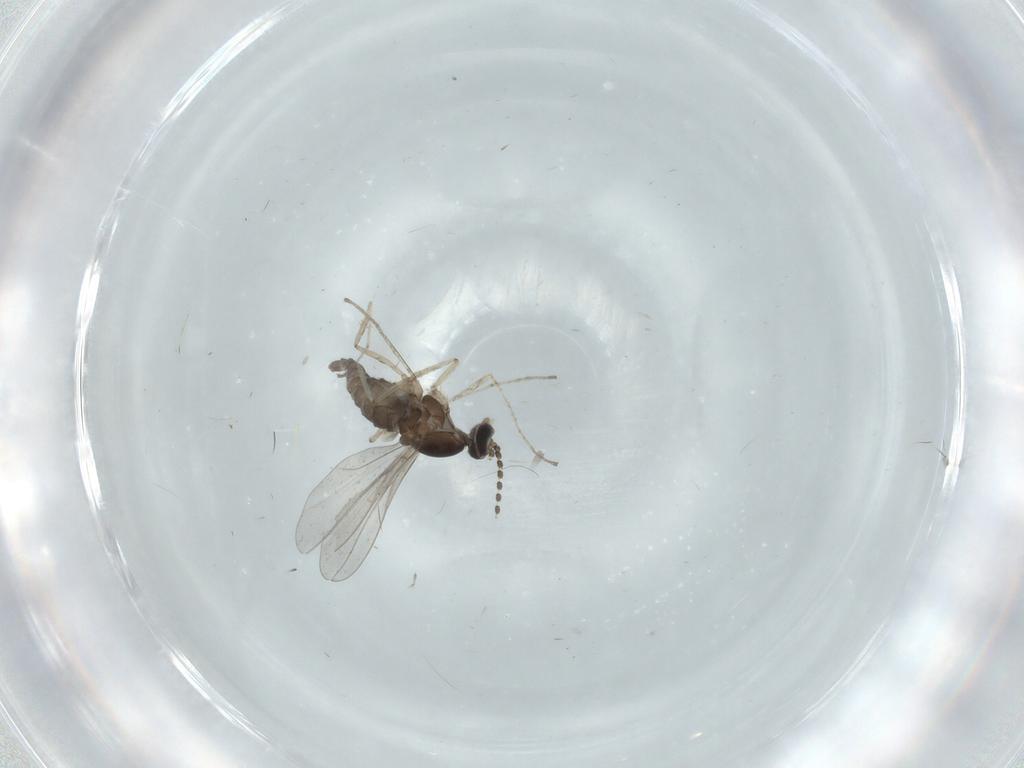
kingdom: Animalia
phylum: Arthropoda
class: Insecta
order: Diptera
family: Cecidomyiidae
